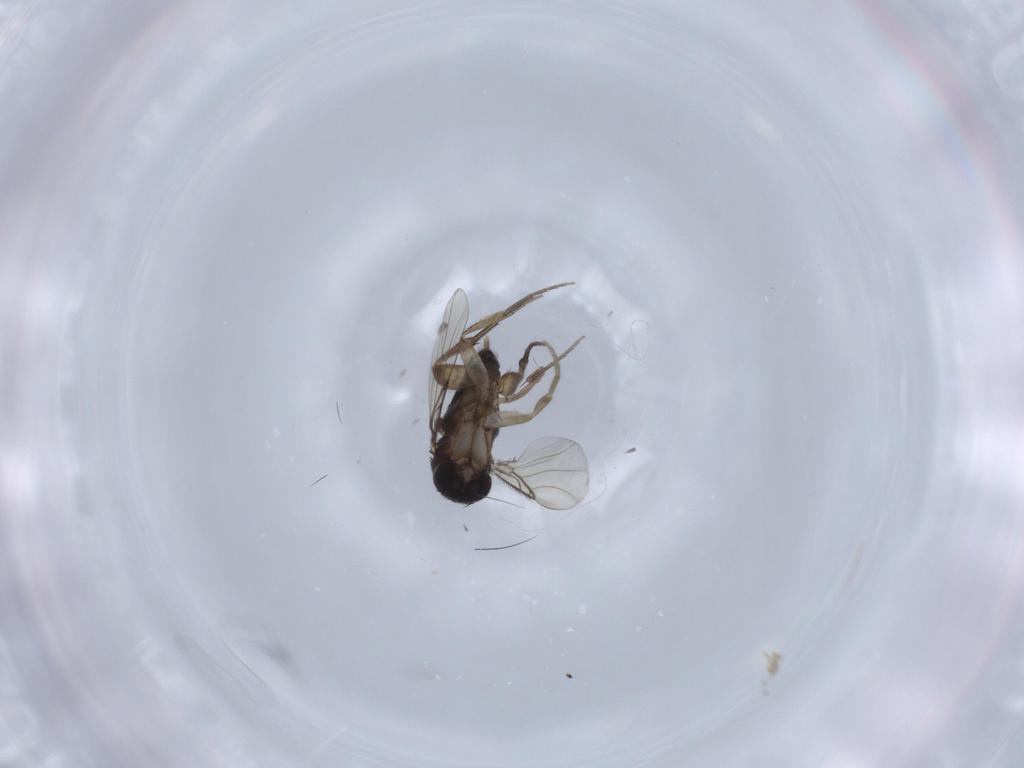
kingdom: Animalia
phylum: Arthropoda
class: Insecta
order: Diptera
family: Phoridae
